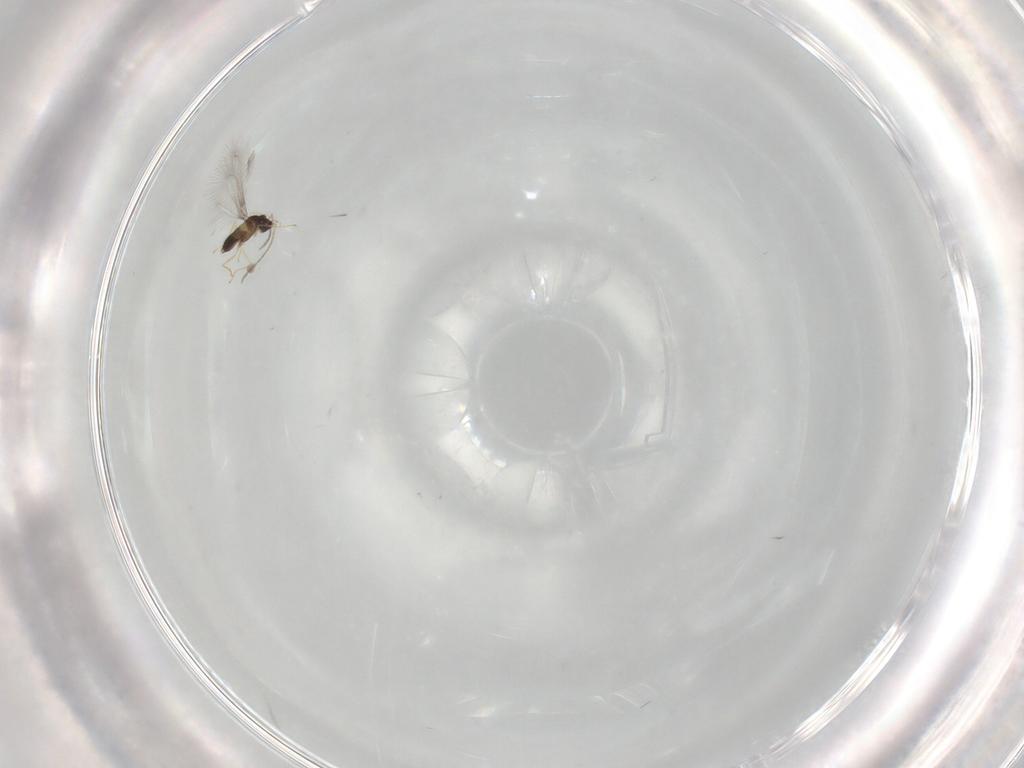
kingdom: Animalia
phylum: Arthropoda
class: Insecta
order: Hymenoptera
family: Mymaridae
